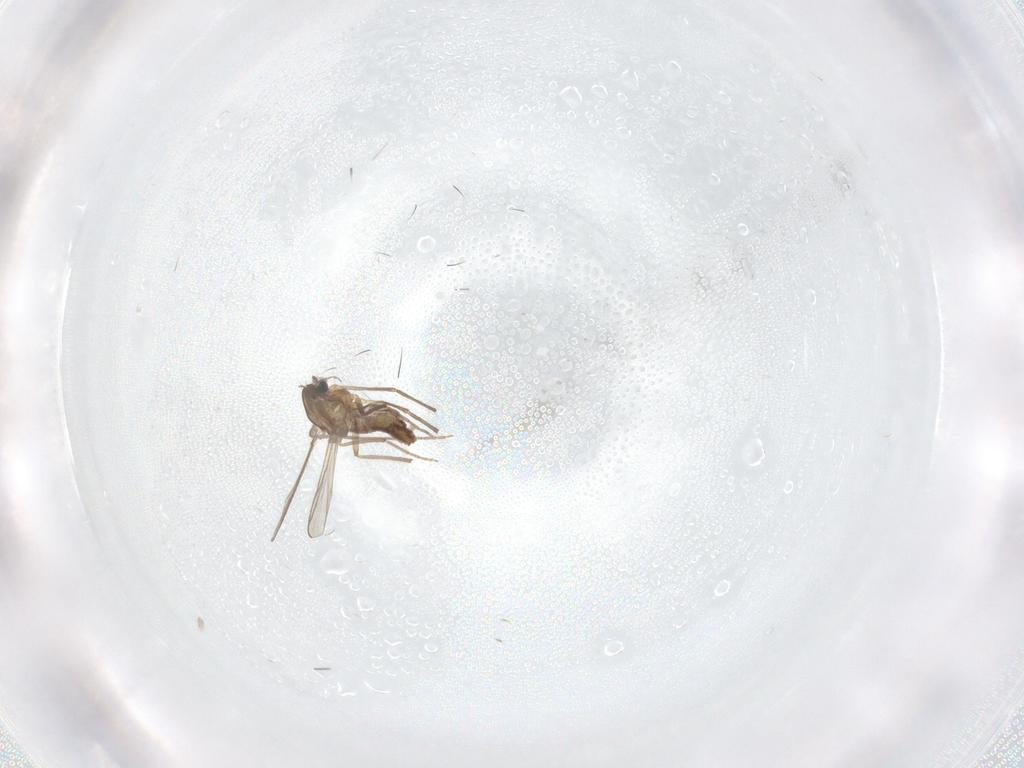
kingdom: Animalia
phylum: Arthropoda
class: Insecta
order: Diptera
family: Chironomidae
